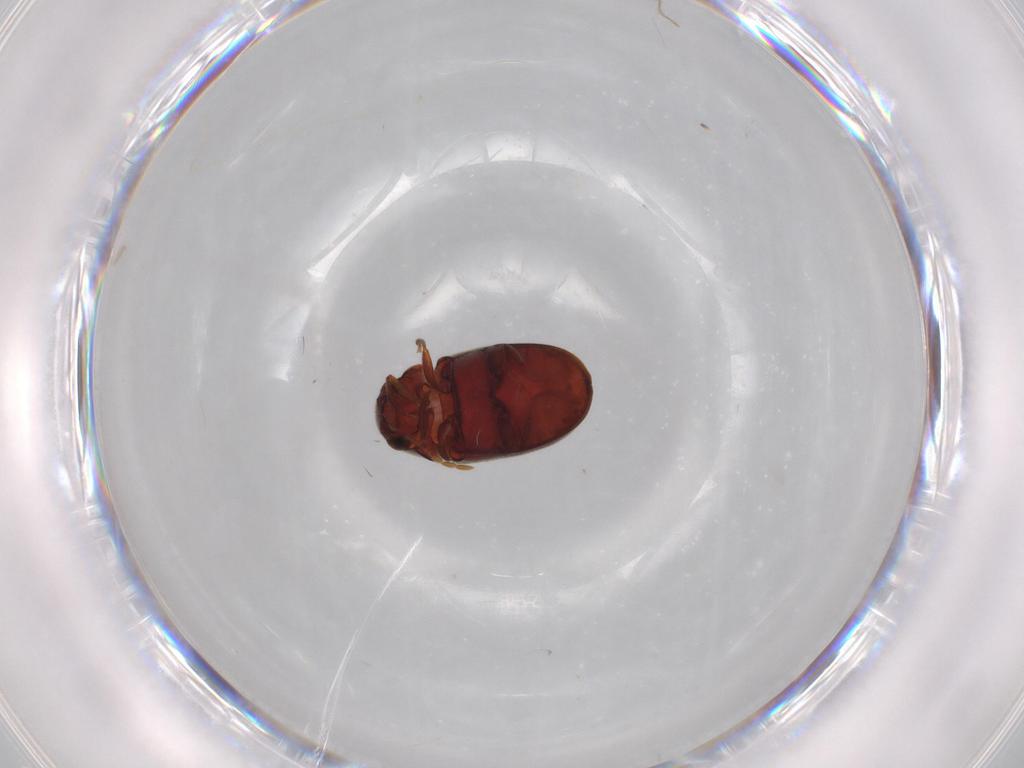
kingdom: Animalia
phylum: Arthropoda
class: Insecta
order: Coleoptera
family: Ptinidae
